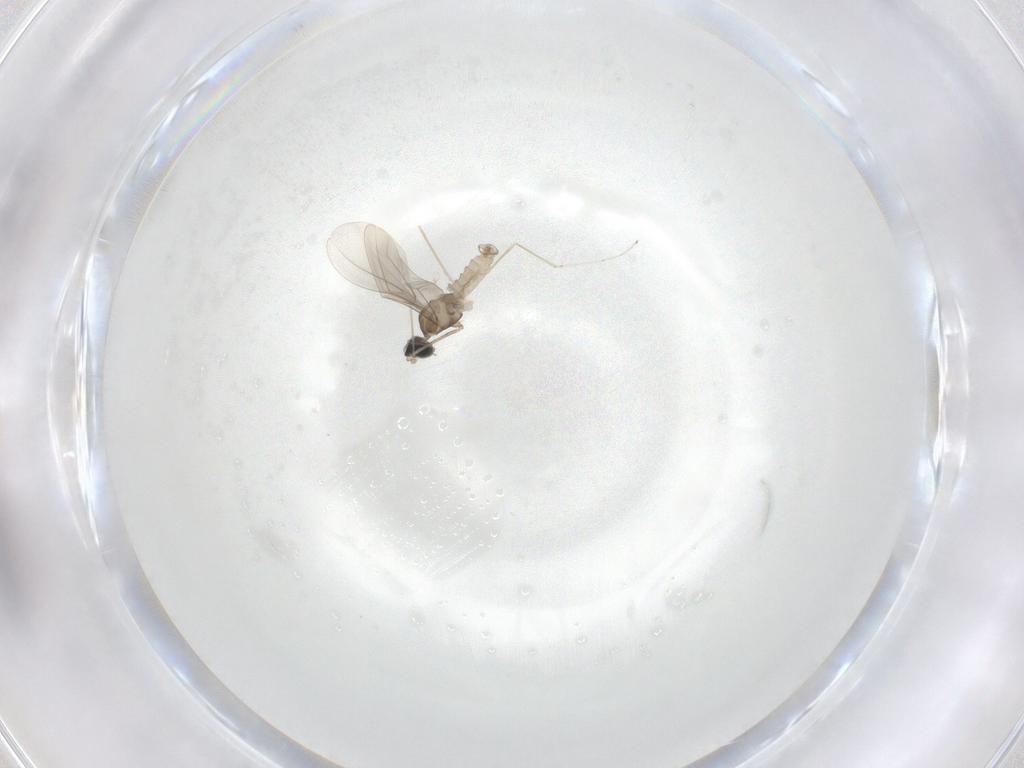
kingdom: Animalia
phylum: Arthropoda
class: Insecta
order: Diptera
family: Cecidomyiidae
